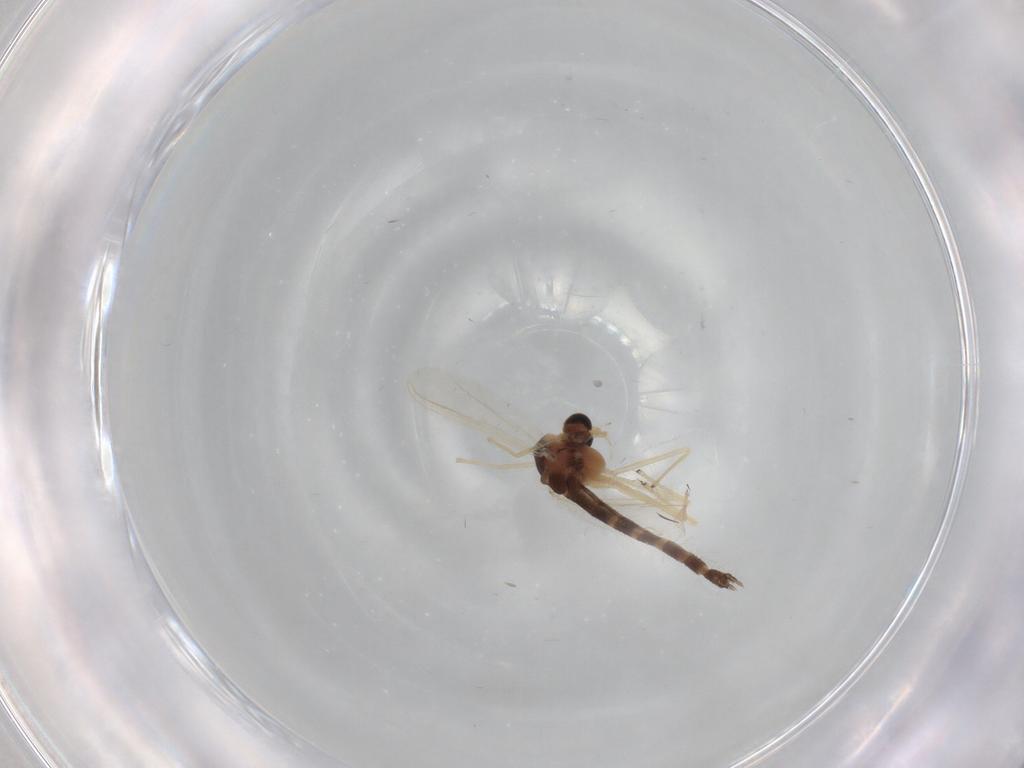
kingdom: Animalia
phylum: Arthropoda
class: Insecta
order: Diptera
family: Chironomidae
